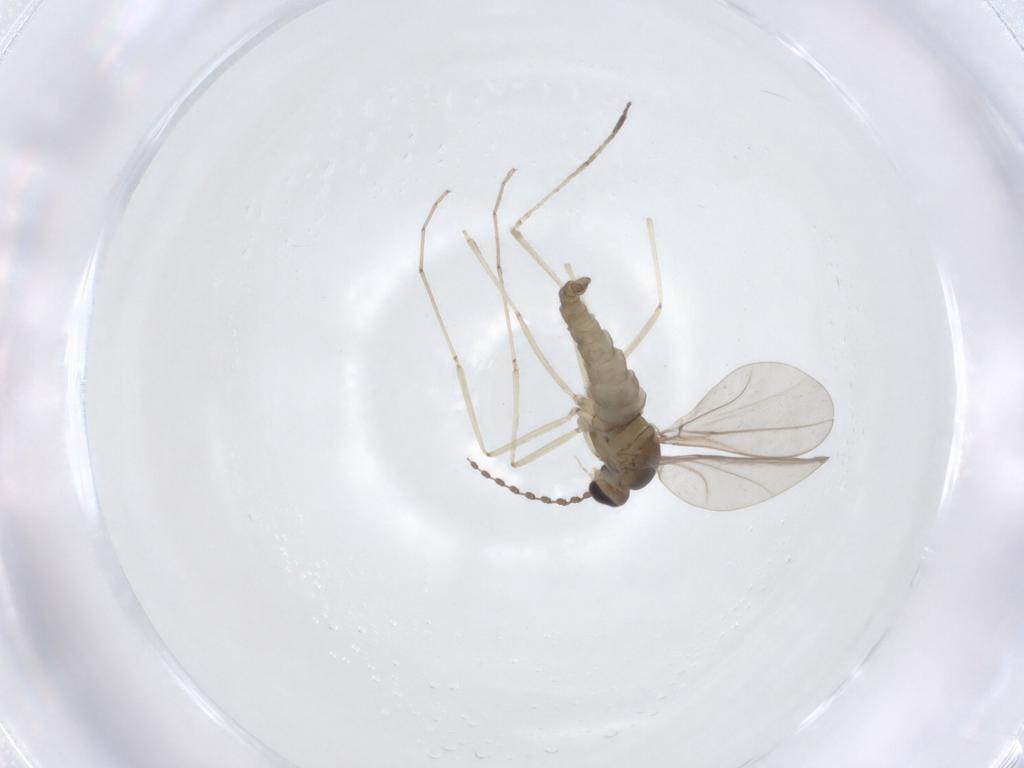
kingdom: Animalia
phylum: Arthropoda
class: Insecta
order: Diptera
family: Cecidomyiidae
